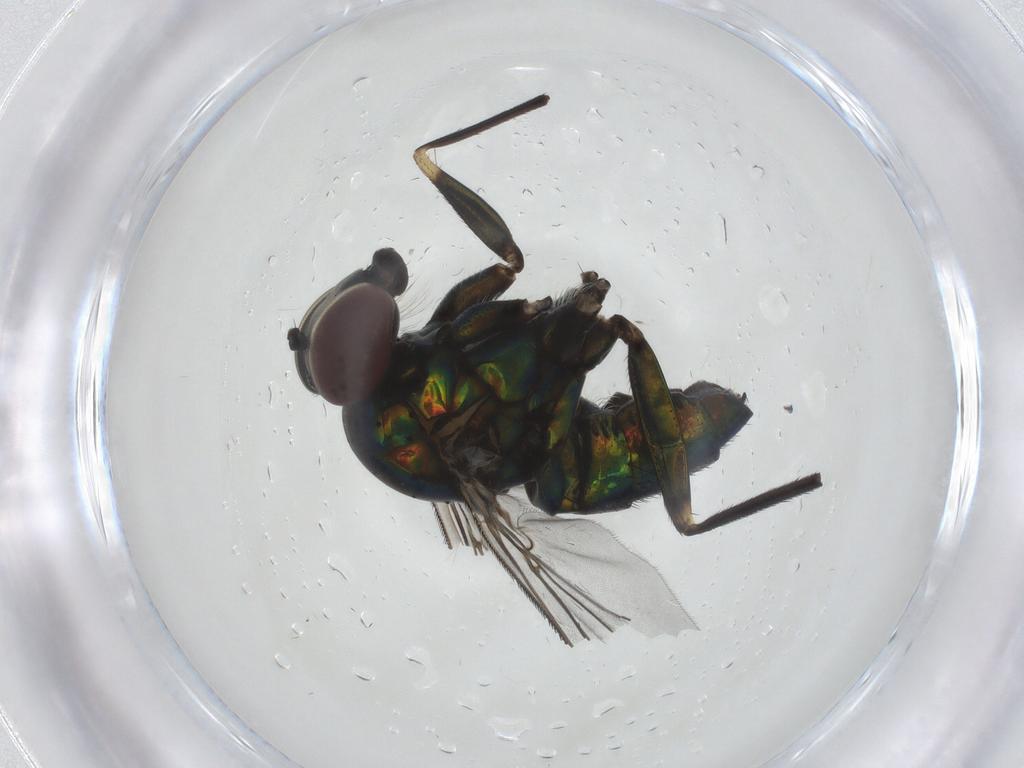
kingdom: Animalia
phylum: Arthropoda
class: Insecta
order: Diptera
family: Dolichopodidae
